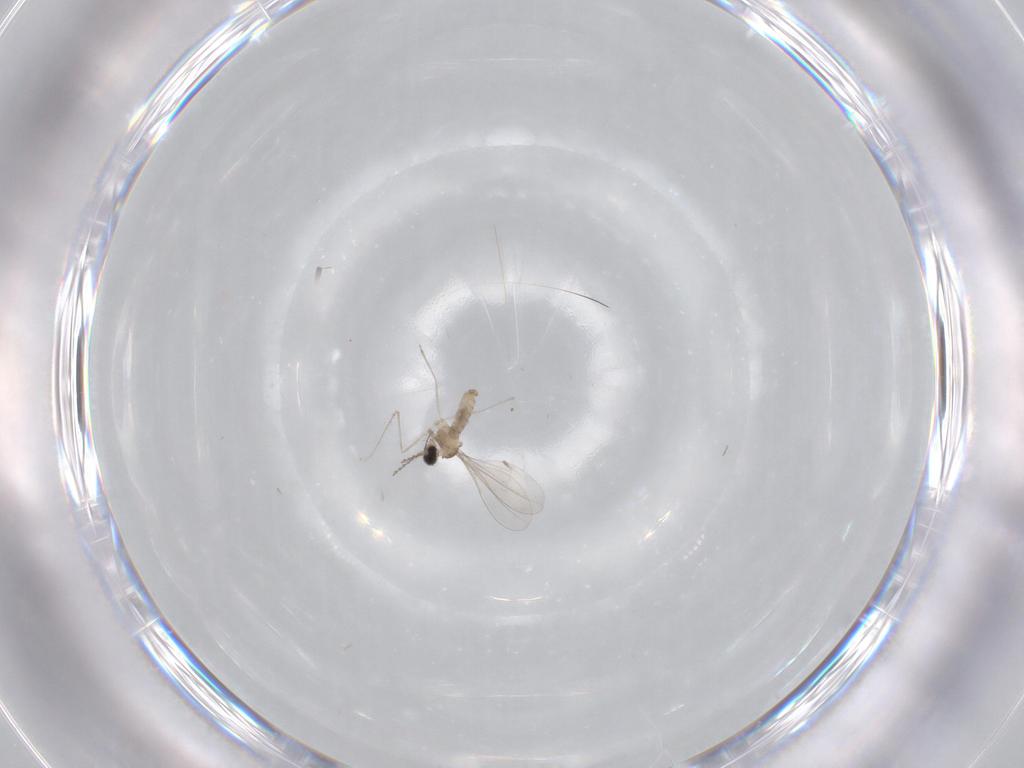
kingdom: Animalia
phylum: Arthropoda
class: Insecta
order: Diptera
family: Cecidomyiidae
